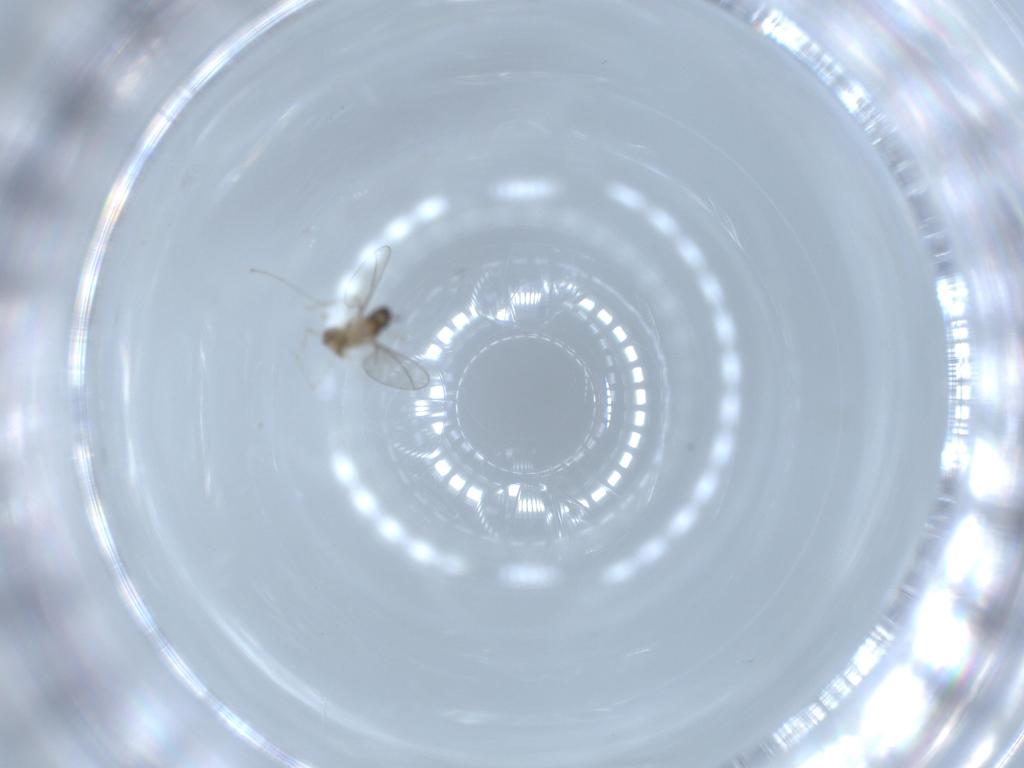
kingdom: Animalia
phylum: Arthropoda
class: Insecta
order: Diptera
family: Cecidomyiidae
